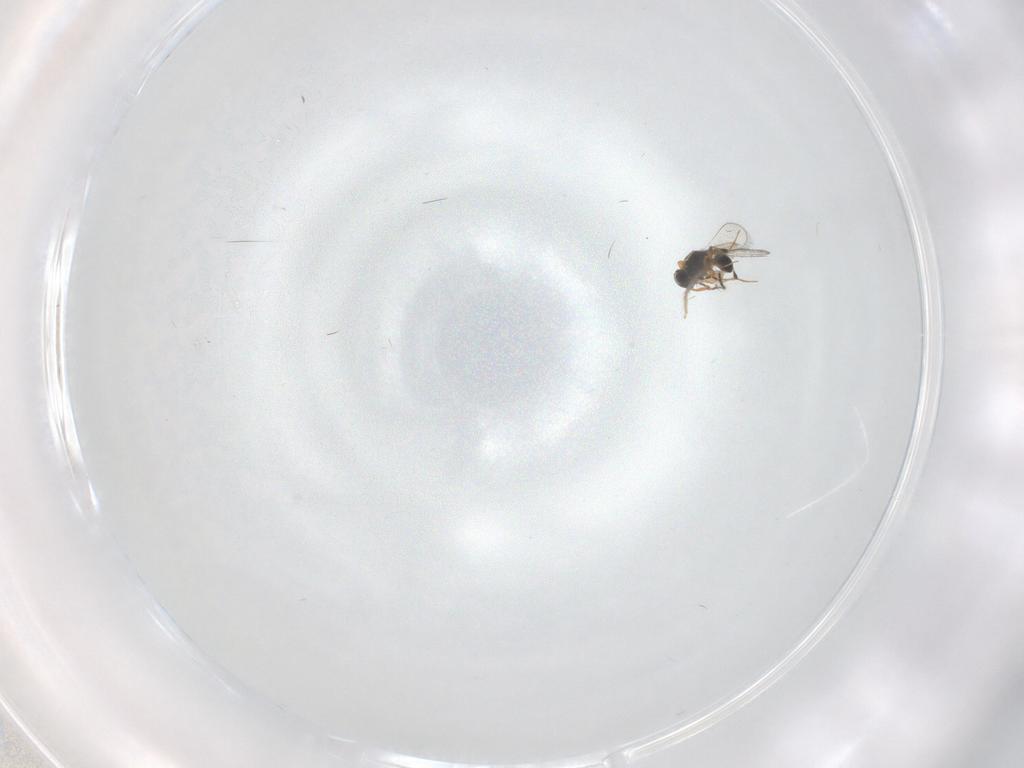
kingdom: Animalia
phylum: Arthropoda
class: Insecta
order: Hymenoptera
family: Platygastridae
